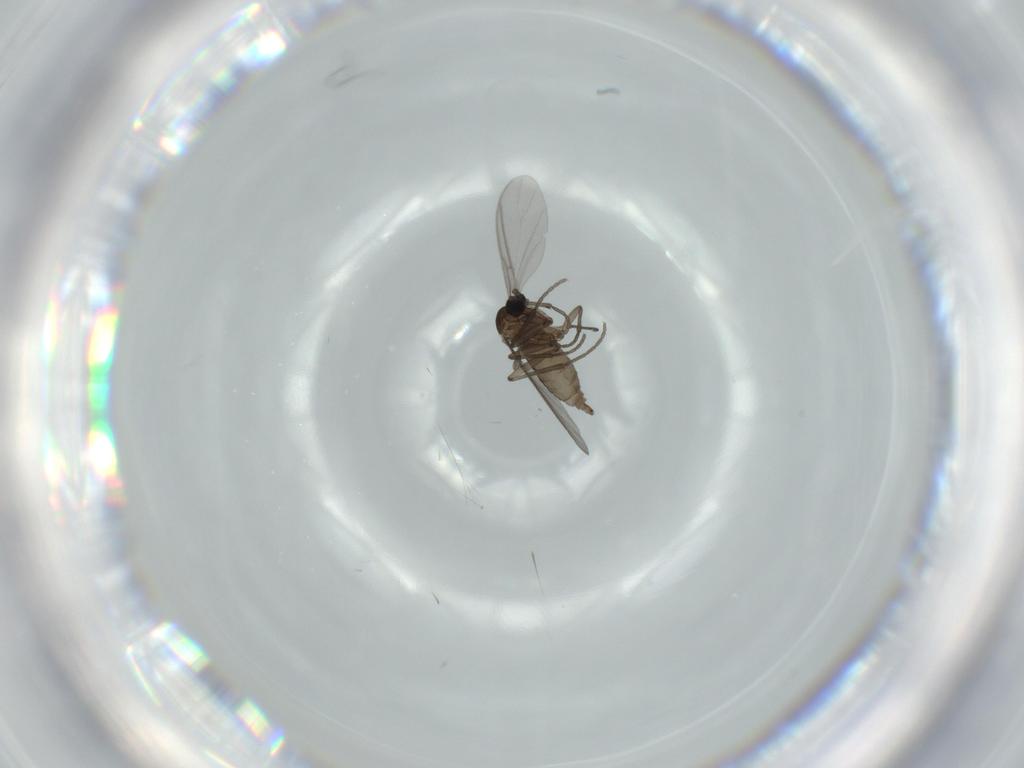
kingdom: Animalia
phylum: Arthropoda
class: Insecta
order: Diptera
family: Sciaridae
